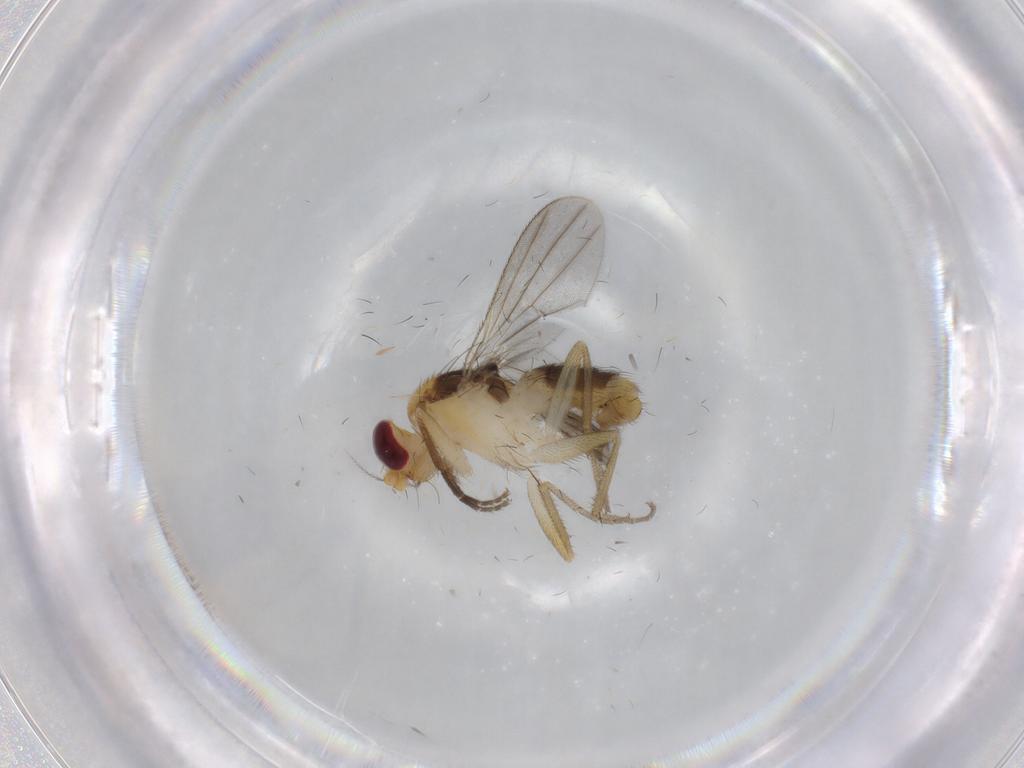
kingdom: Animalia
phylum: Arthropoda
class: Insecta
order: Diptera
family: Clusiidae
